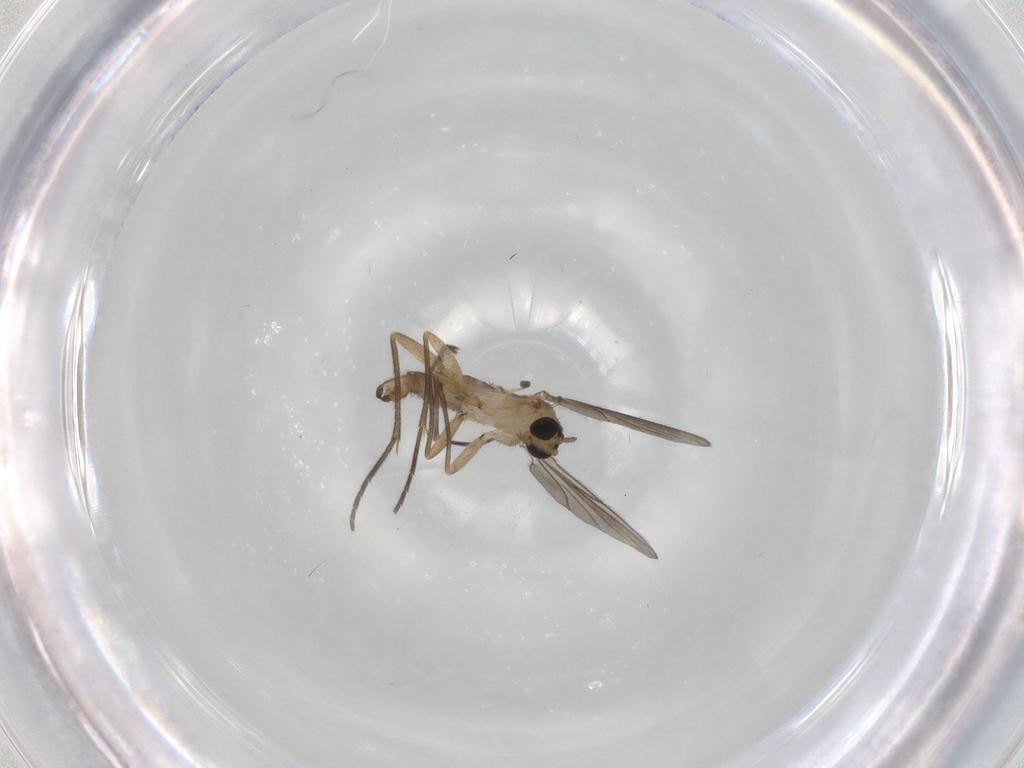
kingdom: Animalia
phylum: Arthropoda
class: Insecta
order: Diptera
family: Sciaridae
